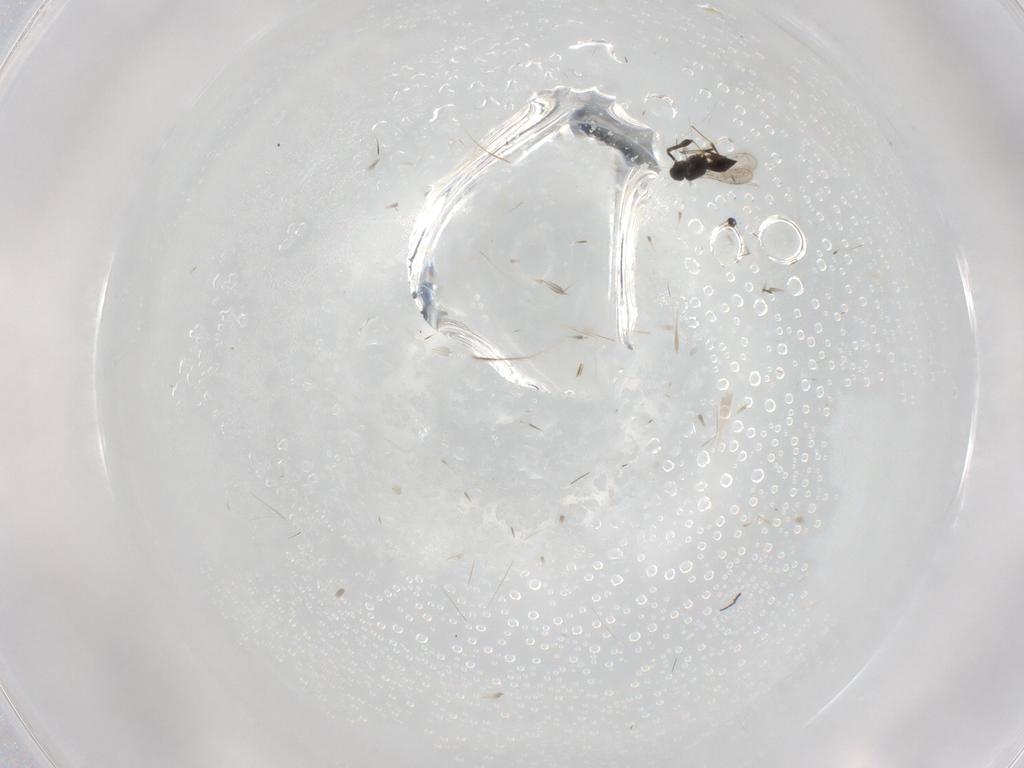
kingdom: Animalia
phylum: Arthropoda
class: Insecta
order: Hymenoptera
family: Scelionidae
